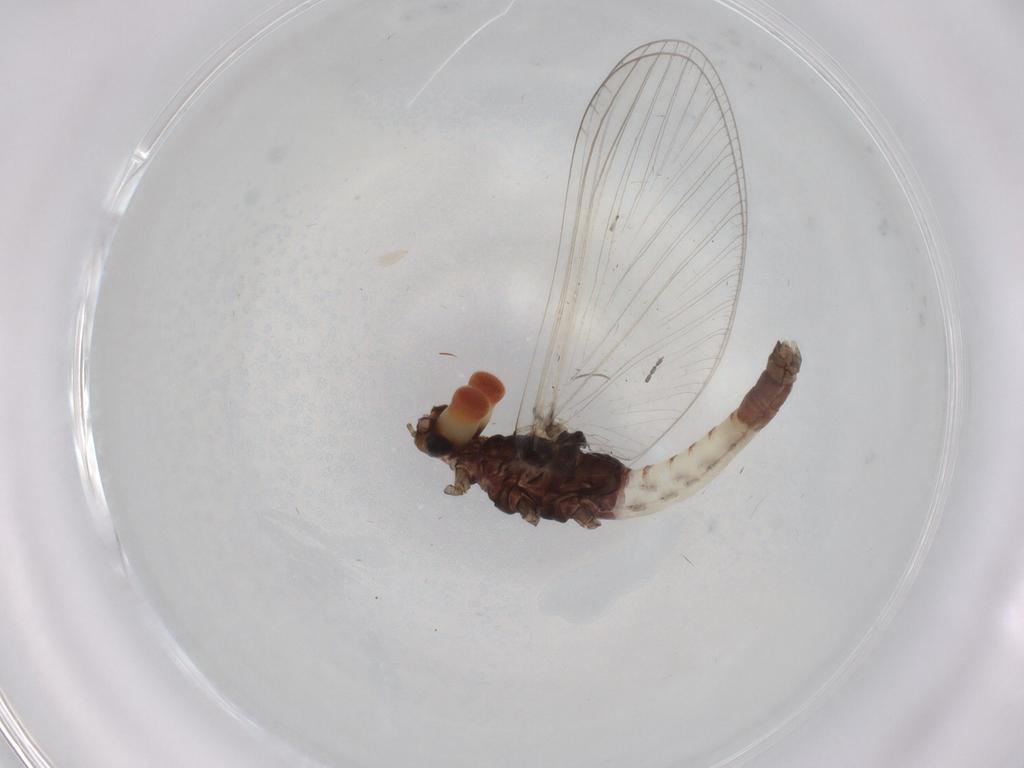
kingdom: Animalia
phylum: Arthropoda
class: Insecta
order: Diptera
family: Cecidomyiidae
